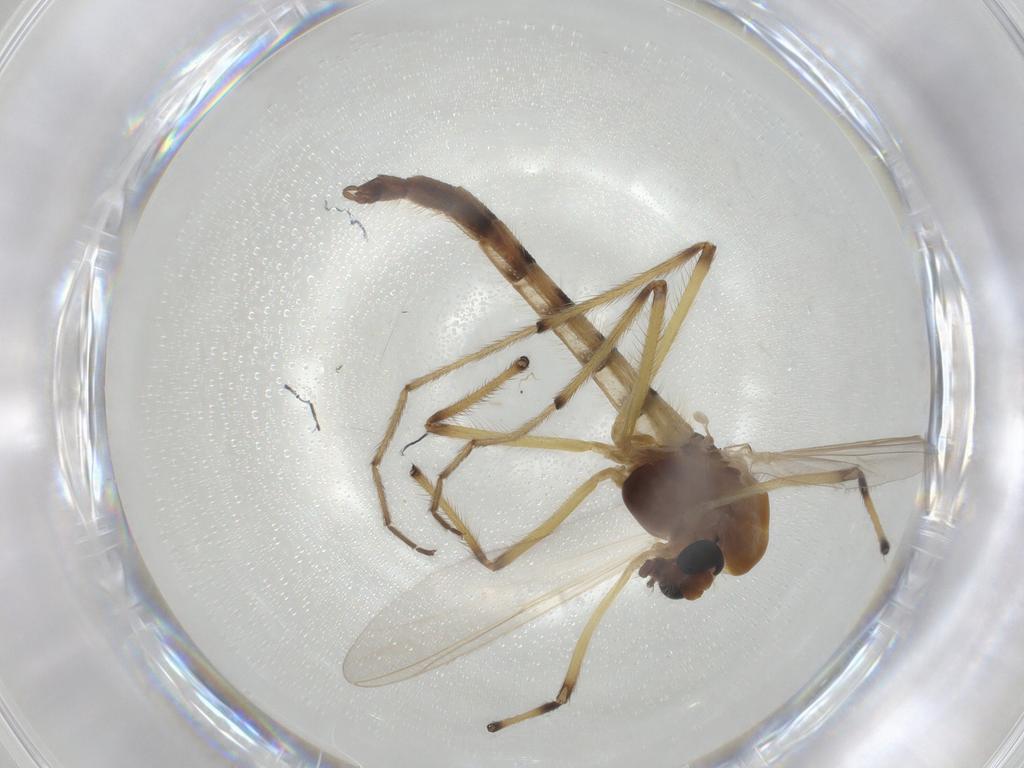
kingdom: Animalia
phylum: Arthropoda
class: Insecta
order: Diptera
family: Chironomidae
